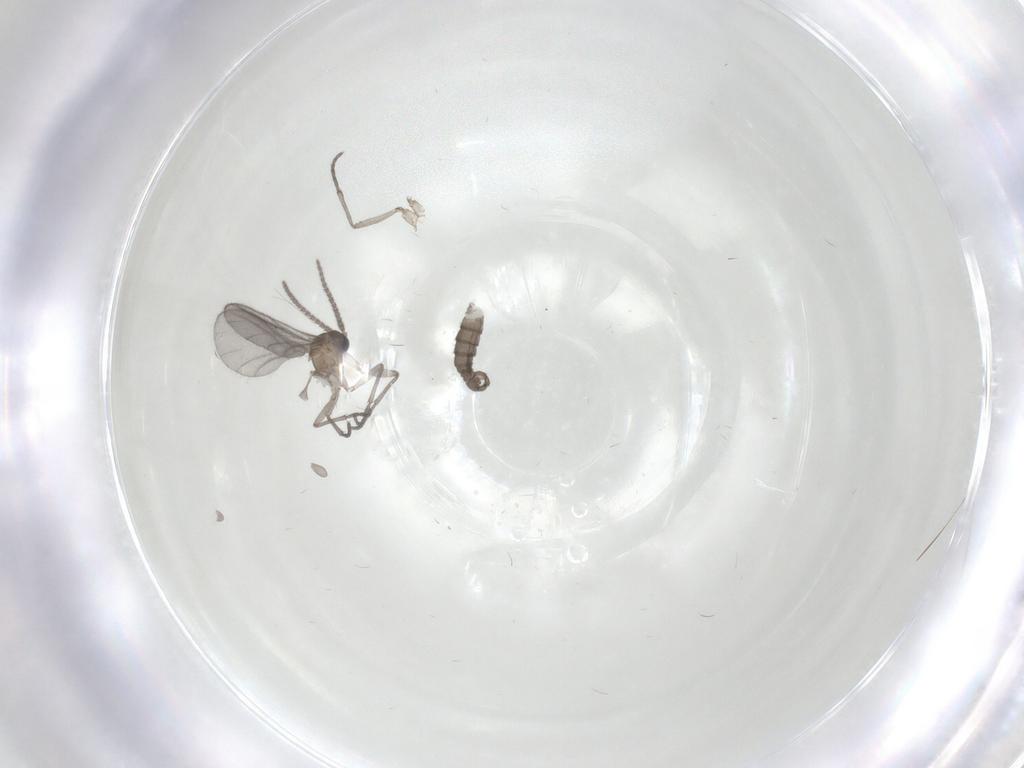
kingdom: Animalia
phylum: Arthropoda
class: Insecta
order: Diptera
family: Sciaridae
